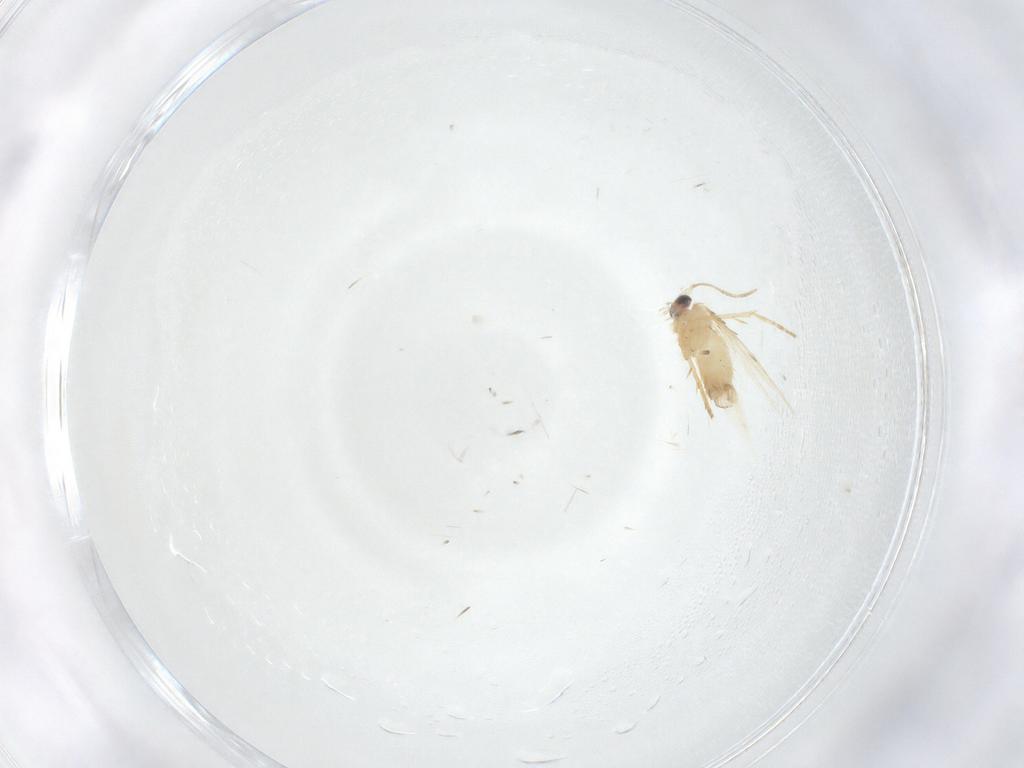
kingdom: Animalia
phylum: Arthropoda
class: Insecta
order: Lepidoptera
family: Nepticulidae
